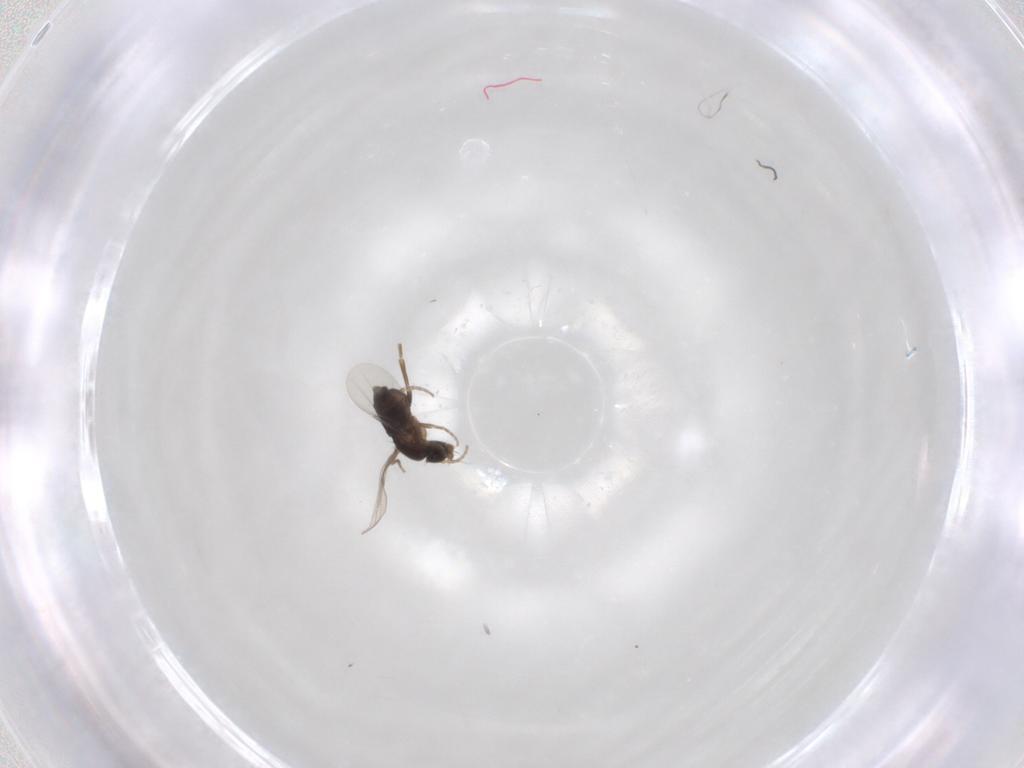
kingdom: Animalia
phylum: Arthropoda
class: Insecta
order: Diptera
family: Phoridae
